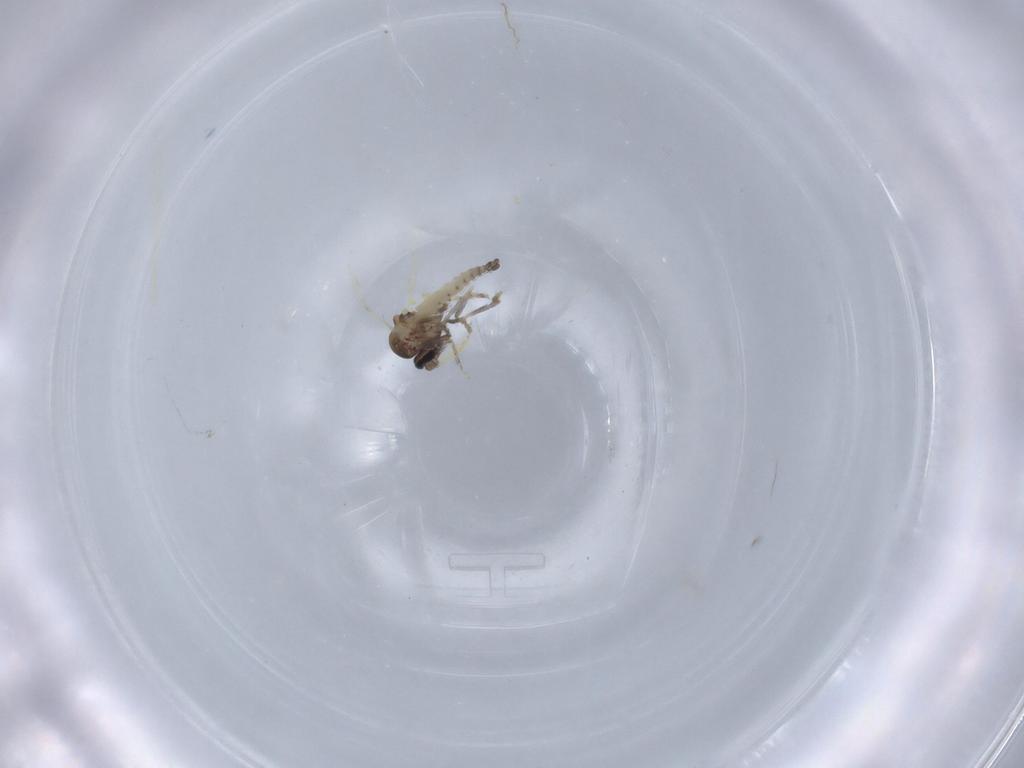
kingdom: Animalia
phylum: Arthropoda
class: Insecta
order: Diptera
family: Ceratopogonidae
